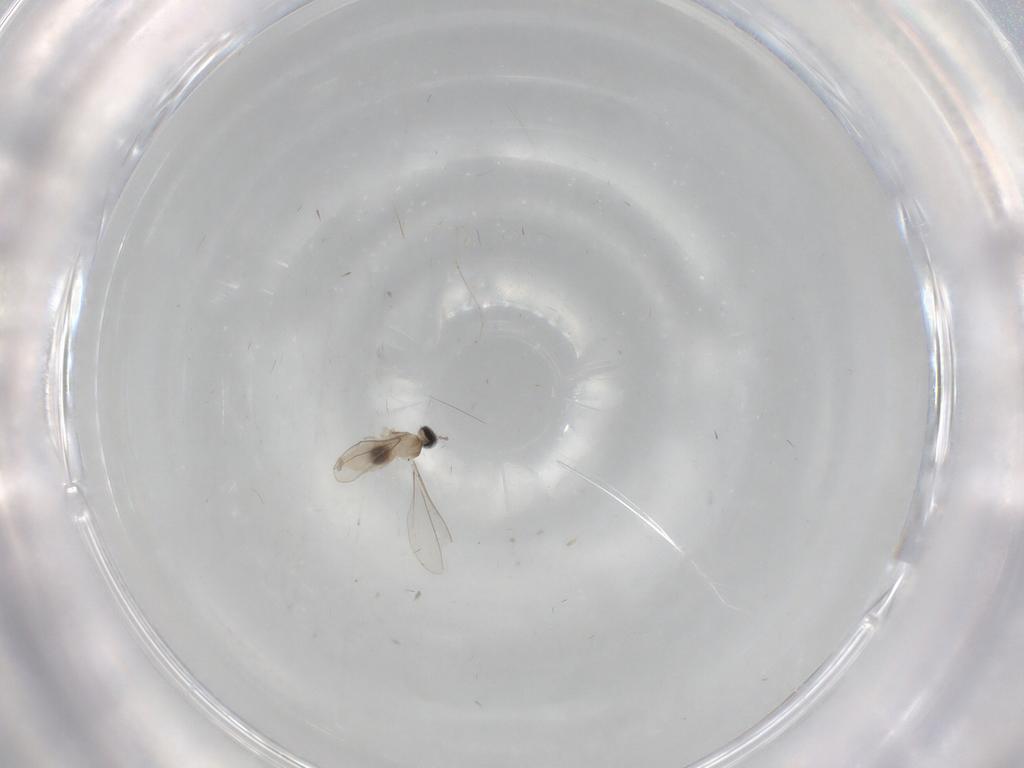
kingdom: Animalia
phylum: Arthropoda
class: Insecta
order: Diptera
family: Cecidomyiidae
